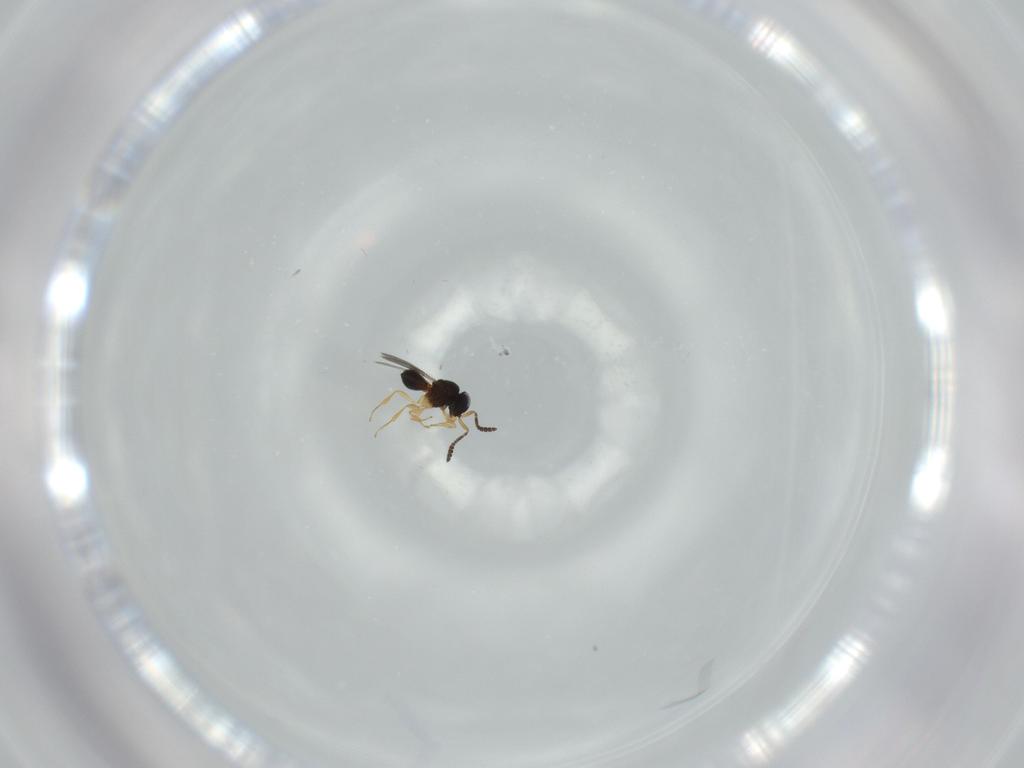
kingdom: Animalia
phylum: Arthropoda
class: Insecta
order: Hymenoptera
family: Scelionidae
